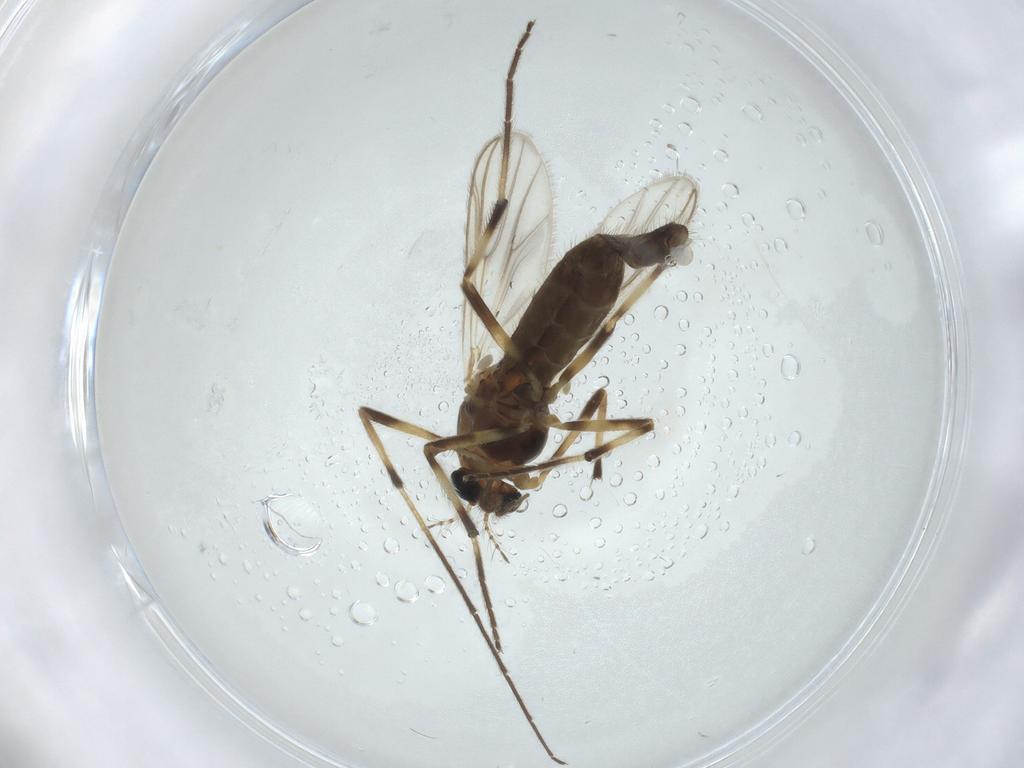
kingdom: Animalia
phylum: Arthropoda
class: Insecta
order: Diptera
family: Chironomidae
